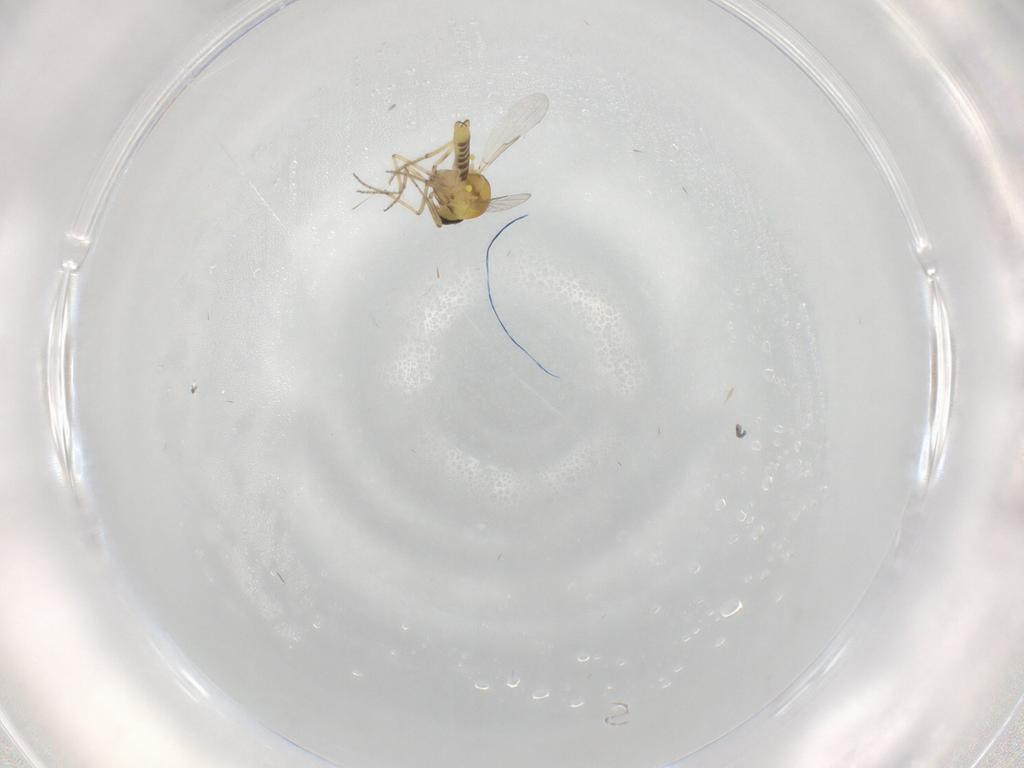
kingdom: Animalia
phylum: Arthropoda
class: Insecta
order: Diptera
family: Ceratopogonidae
